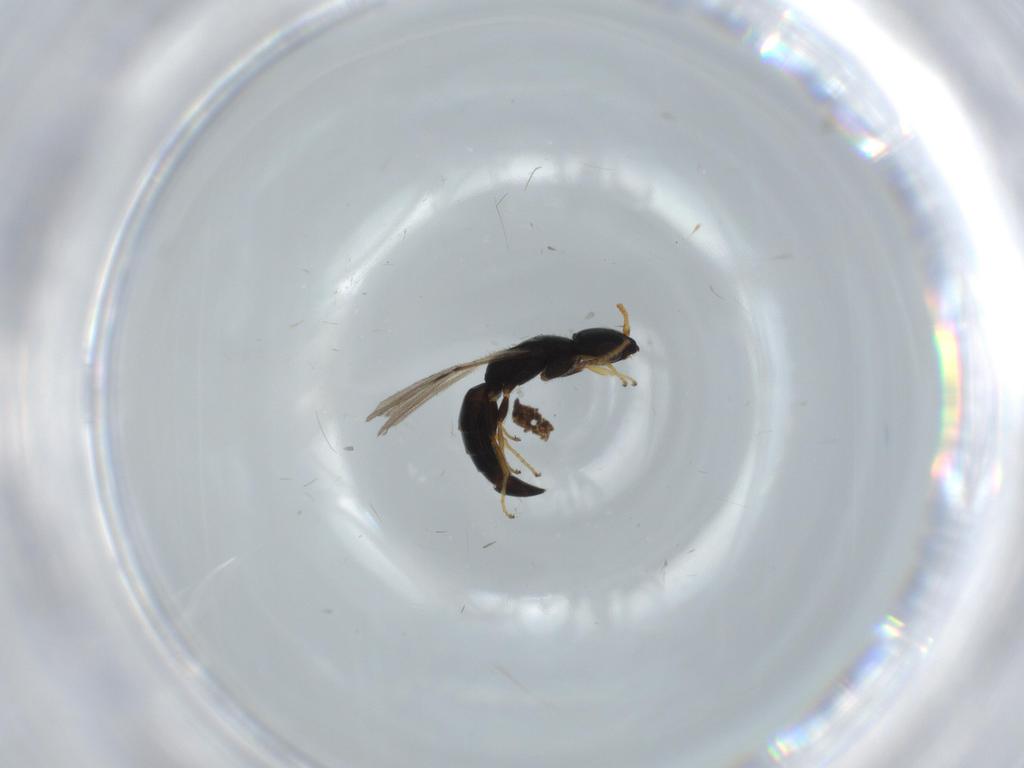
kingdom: Animalia
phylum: Arthropoda
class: Insecta
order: Hymenoptera
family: Bethylidae
